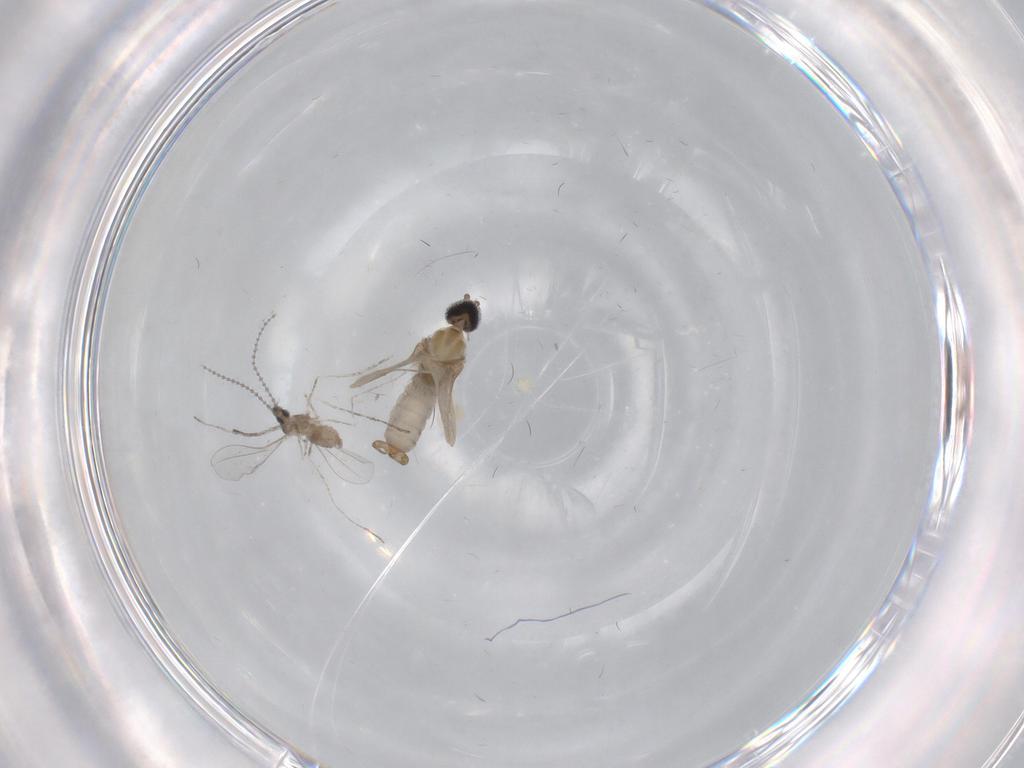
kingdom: Animalia
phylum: Arthropoda
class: Insecta
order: Diptera
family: Cecidomyiidae
